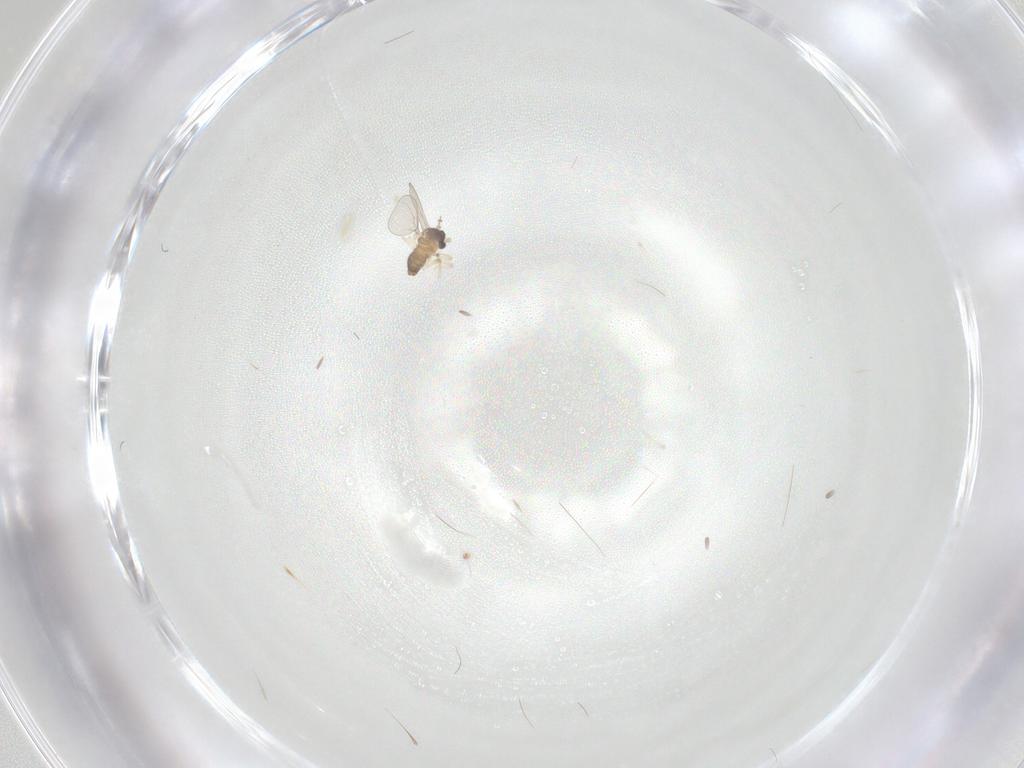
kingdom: Animalia
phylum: Arthropoda
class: Insecta
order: Diptera
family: Cecidomyiidae
